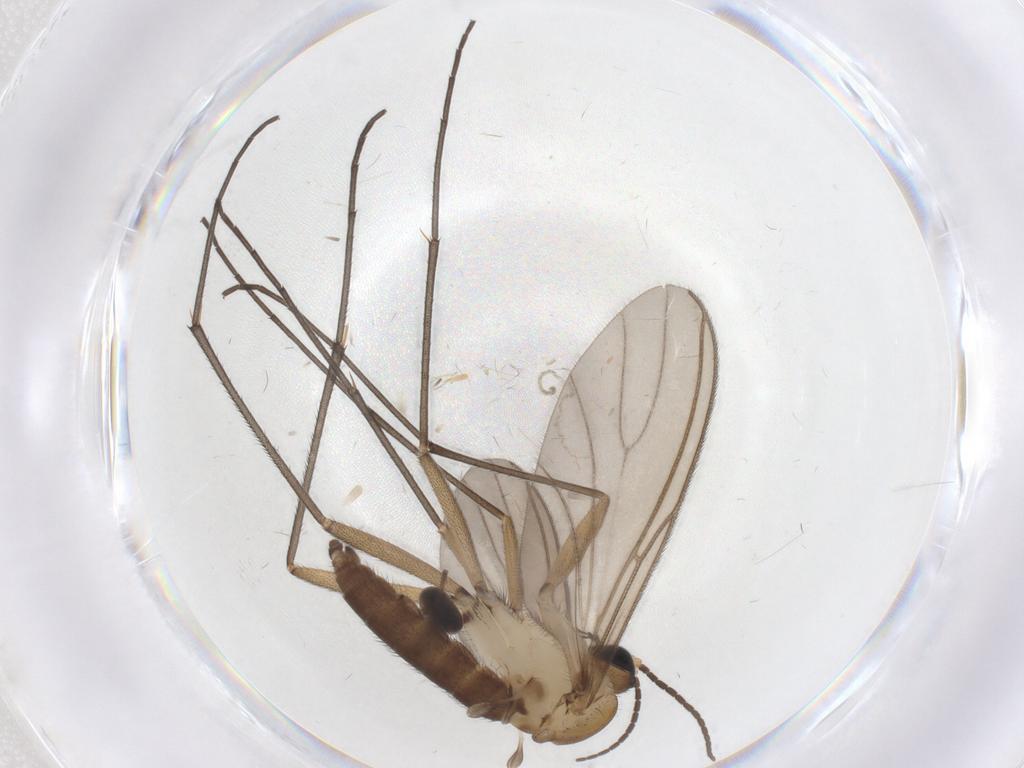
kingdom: Animalia
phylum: Arthropoda
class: Insecta
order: Diptera
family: Sciaridae
